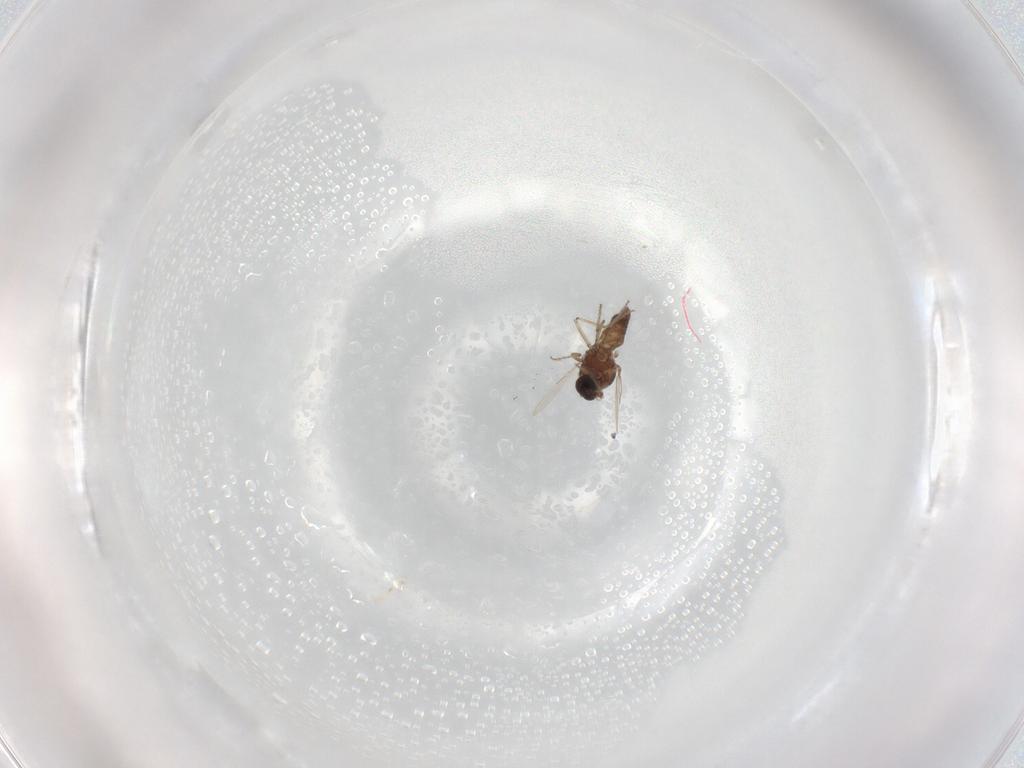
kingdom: Animalia
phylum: Arthropoda
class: Insecta
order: Diptera
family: Ceratopogonidae
